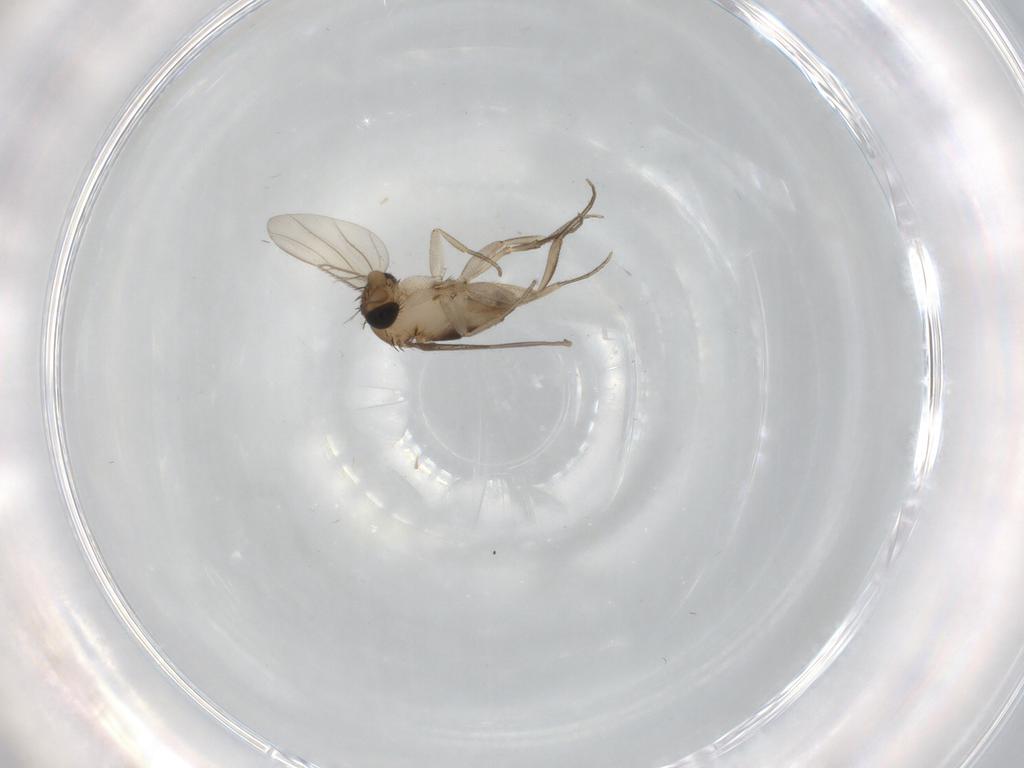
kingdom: Animalia
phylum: Arthropoda
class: Insecta
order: Diptera
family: Phoridae
